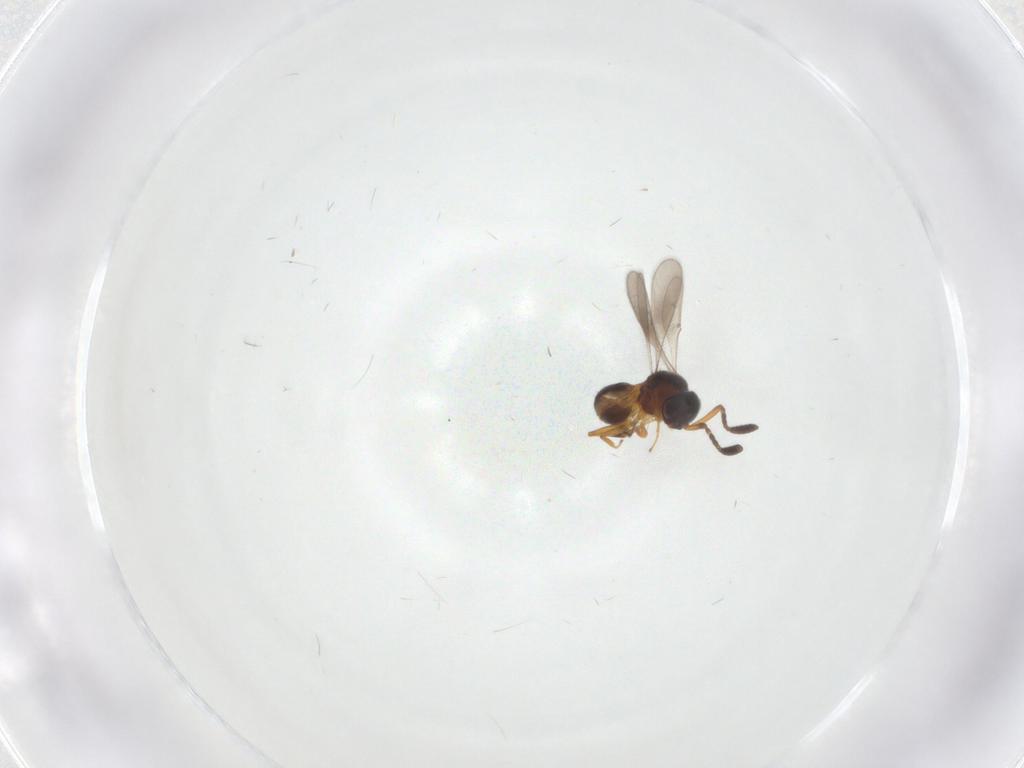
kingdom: Animalia
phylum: Arthropoda
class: Insecta
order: Hymenoptera
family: Scelionidae
